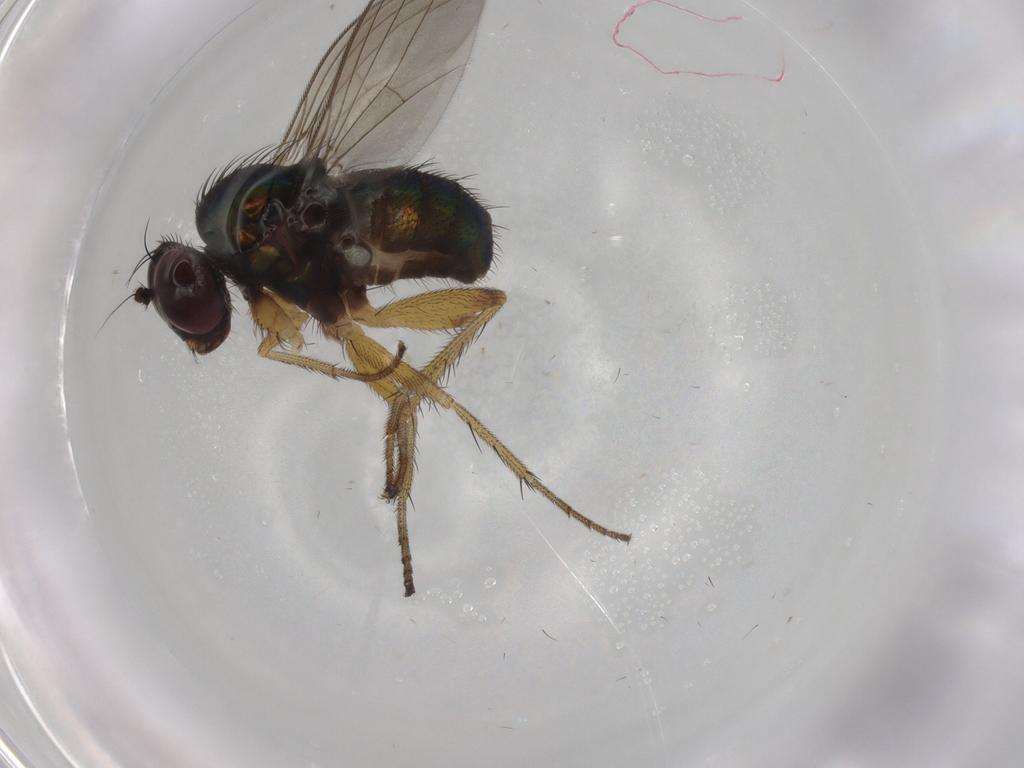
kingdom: Animalia
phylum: Arthropoda
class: Insecta
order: Diptera
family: Dolichopodidae
